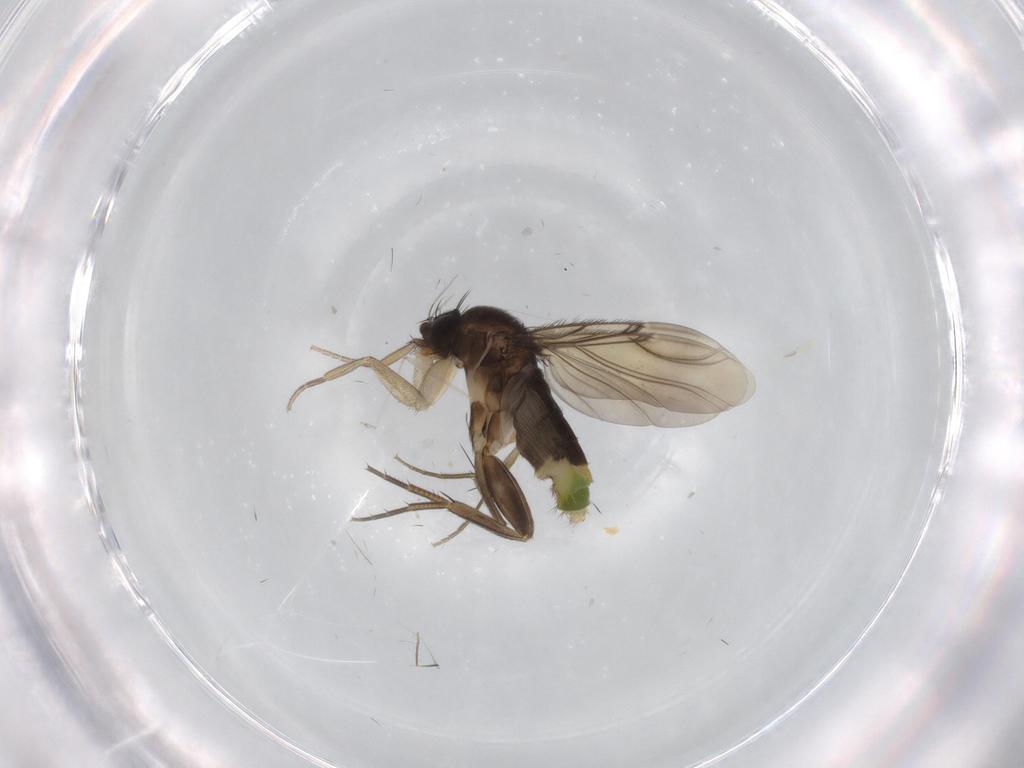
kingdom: Animalia
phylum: Arthropoda
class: Insecta
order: Diptera
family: Phoridae
